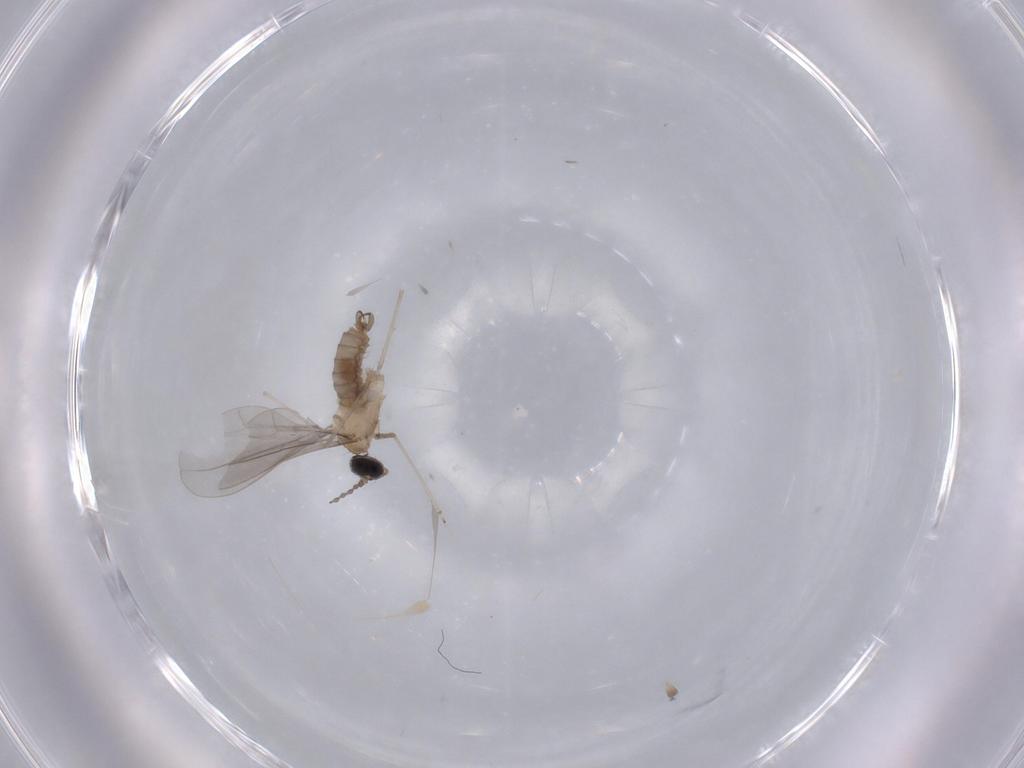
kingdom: Animalia
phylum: Arthropoda
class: Insecta
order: Diptera
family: Cecidomyiidae
